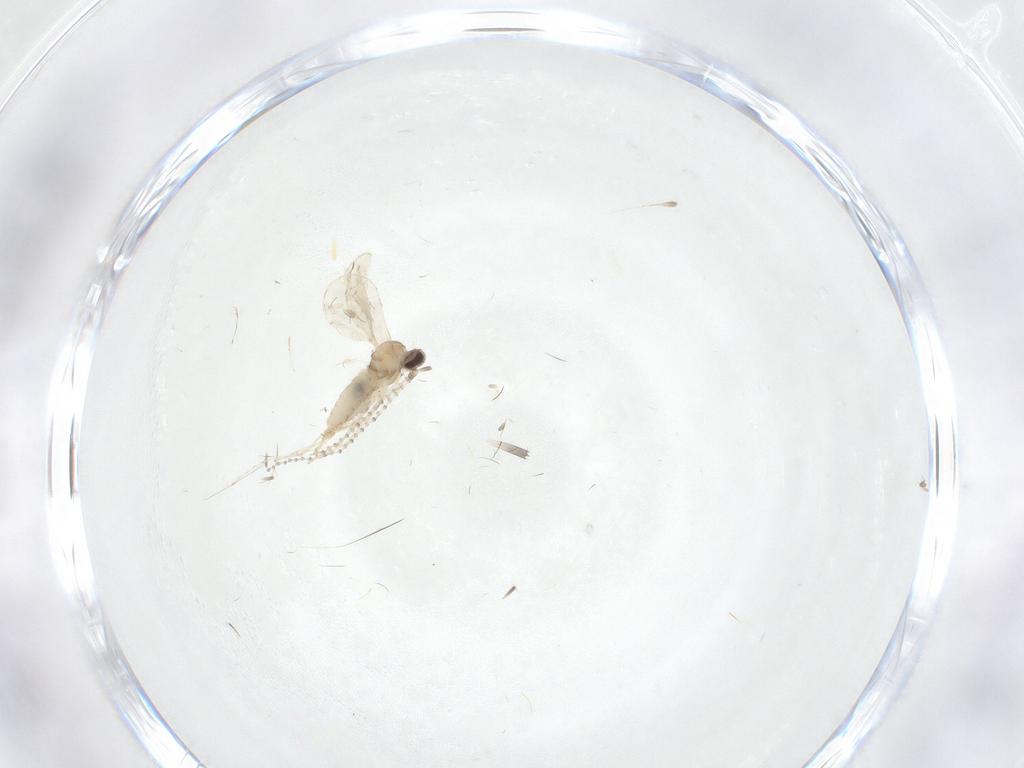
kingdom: Animalia
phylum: Arthropoda
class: Insecta
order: Diptera
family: Cecidomyiidae
